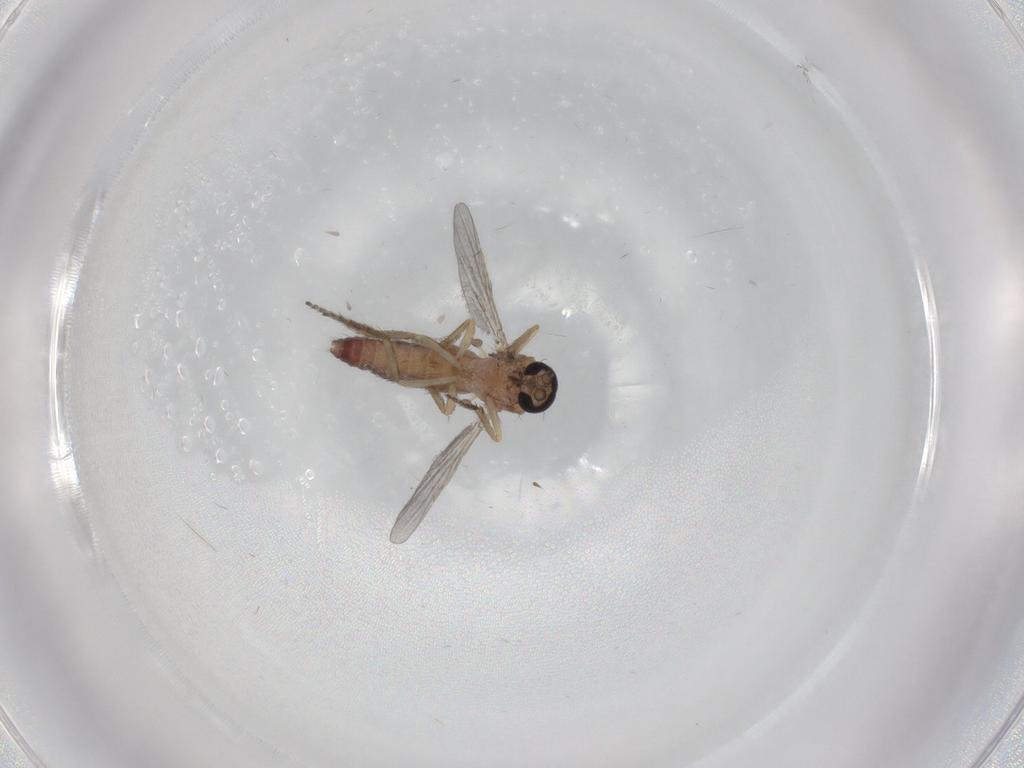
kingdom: Animalia
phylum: Arthropoda
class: Insecta
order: Diptera
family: Ceratopogonidae
